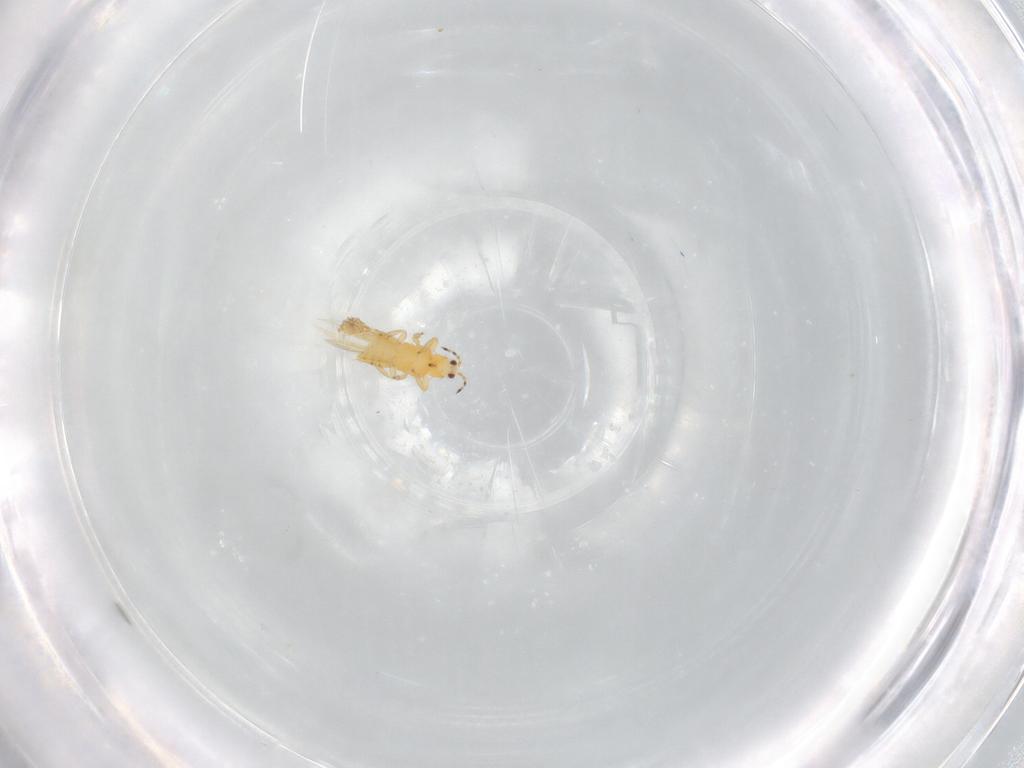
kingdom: Animalia
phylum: Arthropoda
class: Insecta
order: Thysanoptera
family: Thripidae
